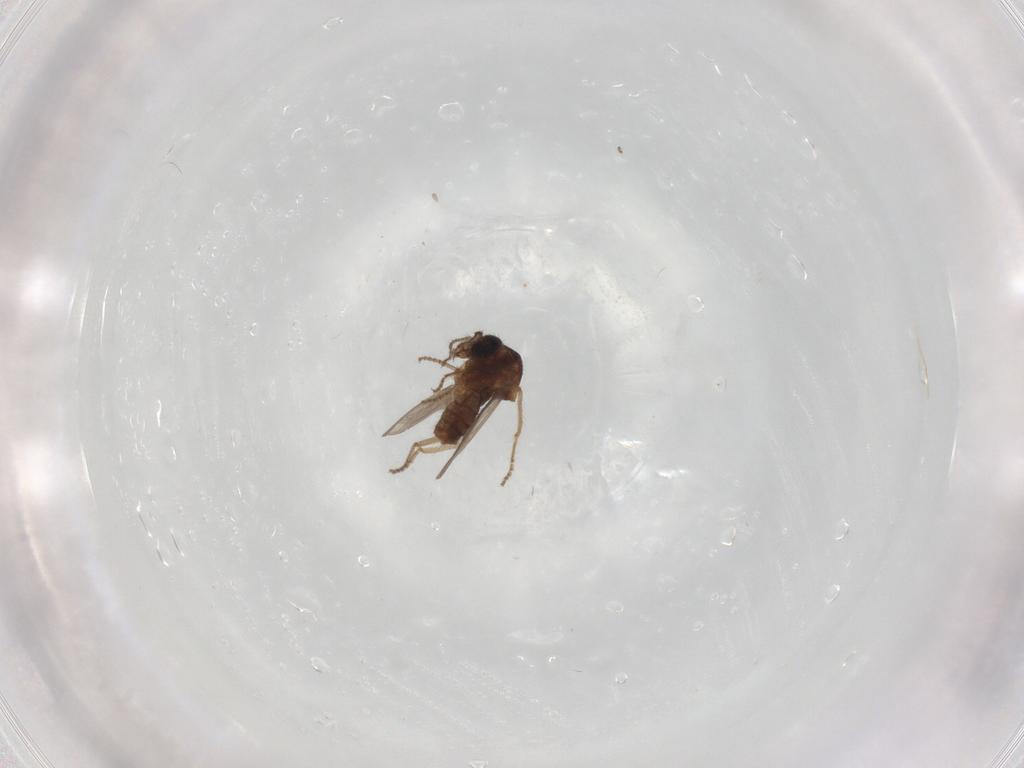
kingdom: Animalia
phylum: Arthropoda
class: Insecta
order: Diptera
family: Ceratopogonidae
